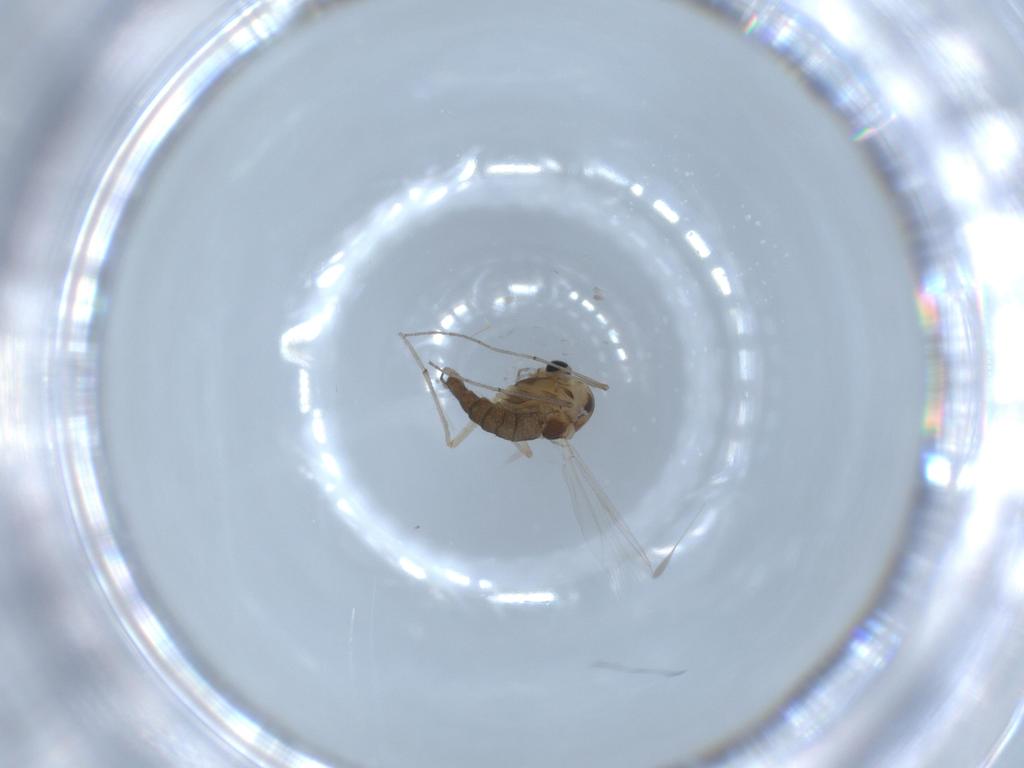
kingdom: Animalia
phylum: Arthropoda
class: Insecta
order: Diptera
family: Chironomidae
